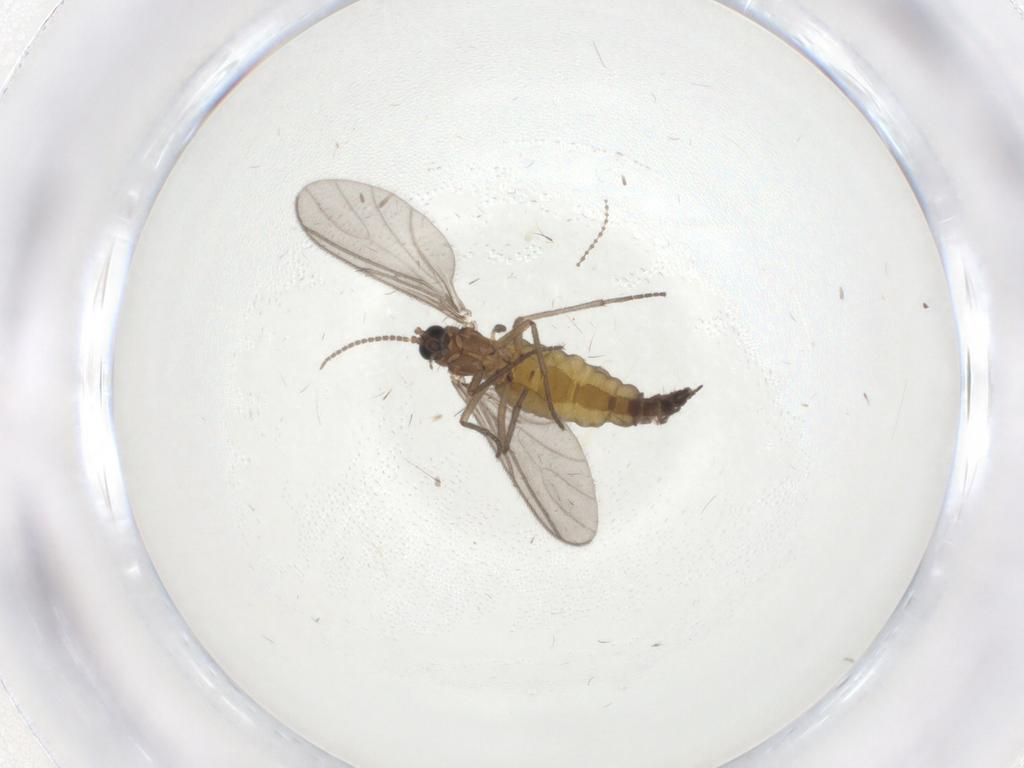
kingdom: Animalia
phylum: Arthropoda
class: Insecta
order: Diptera
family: Sciaridae
